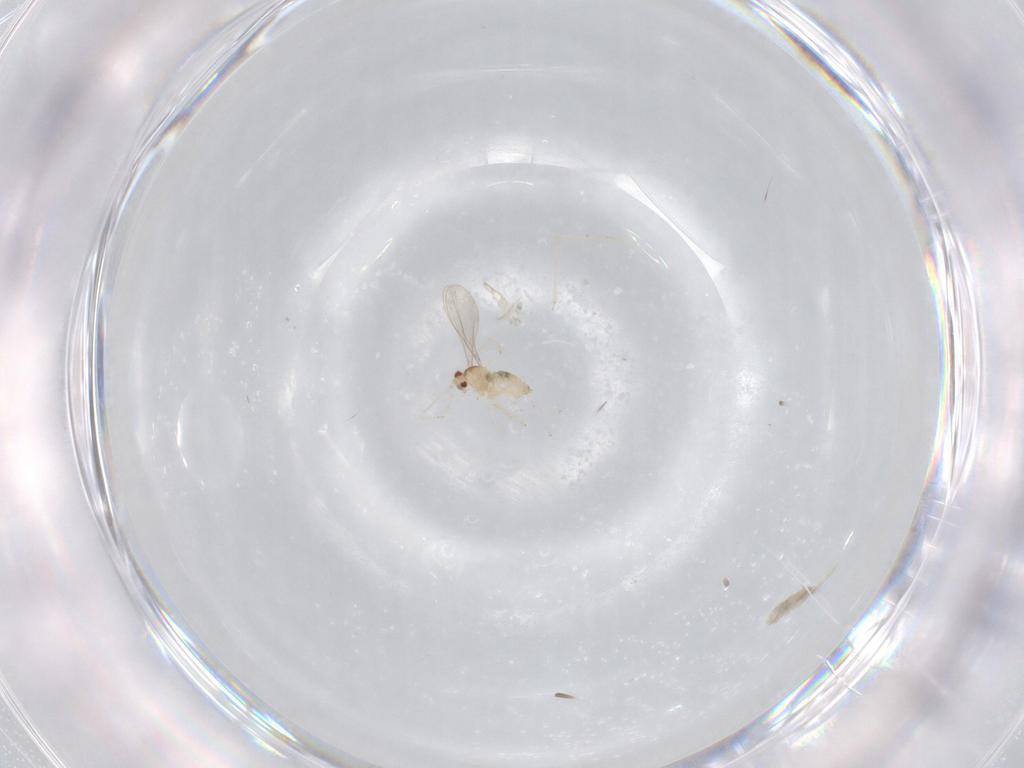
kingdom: Animalia
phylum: Arthropoda
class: Insecta
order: Diptera
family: Cecidomyiidae
